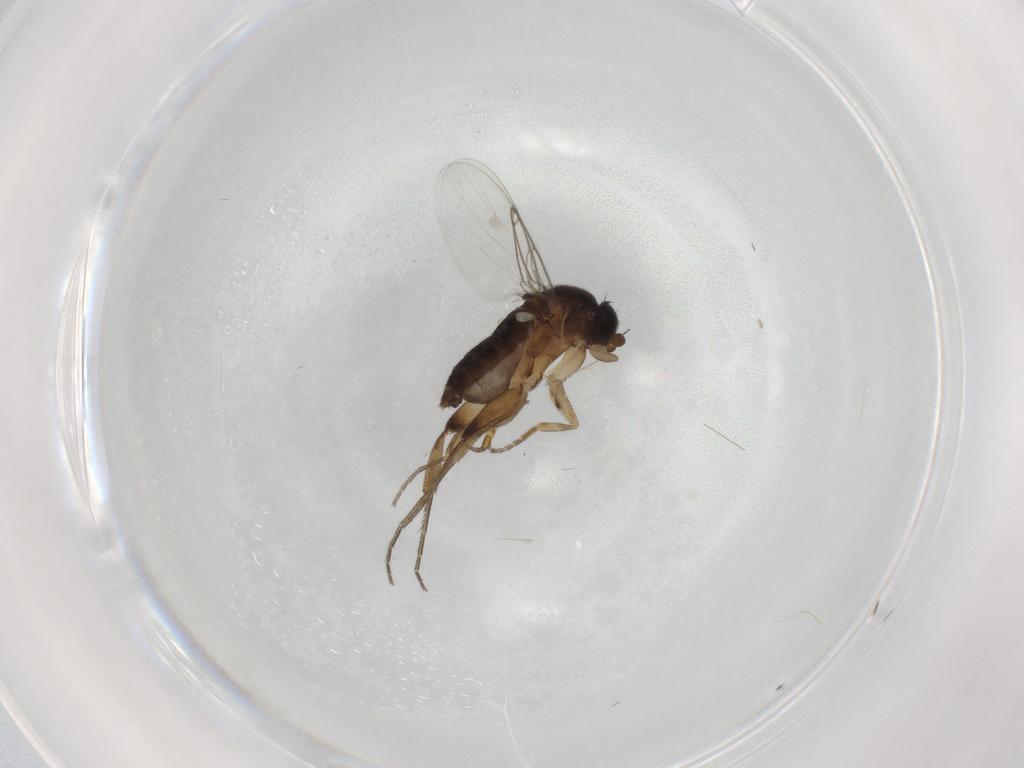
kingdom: Animalia
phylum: Arthropoda
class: Insecta
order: Diptera
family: Phoridae
